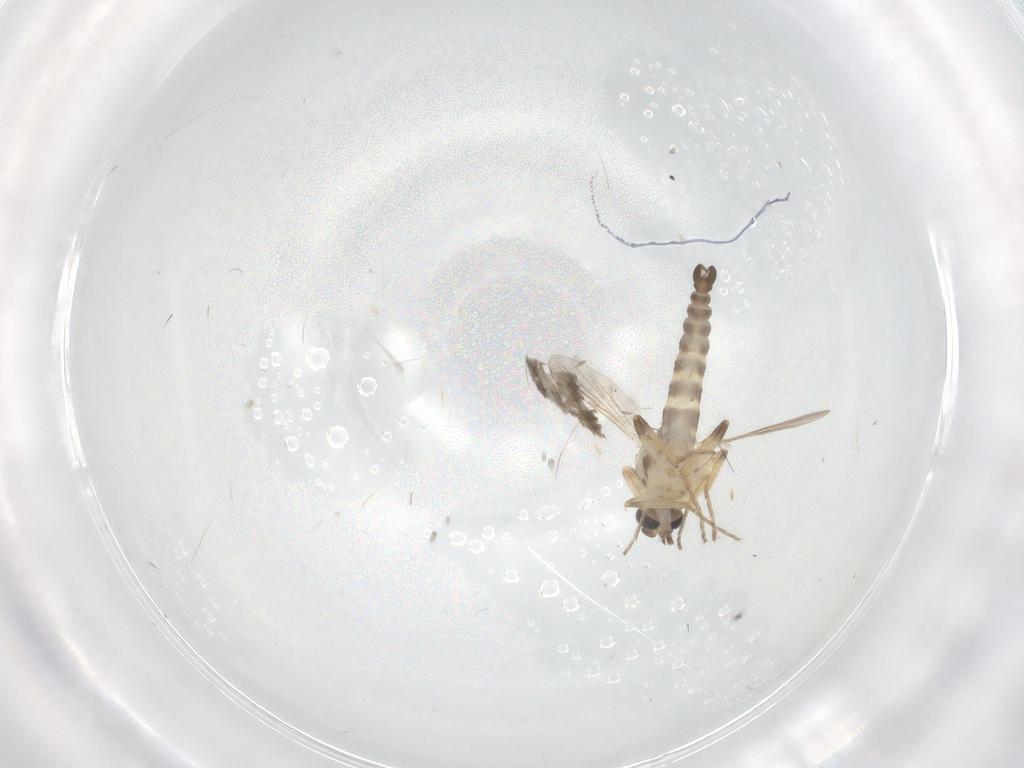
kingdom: Animalia
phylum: Arthropoda
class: Insecta
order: Diptera
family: Ceratopogonidae
